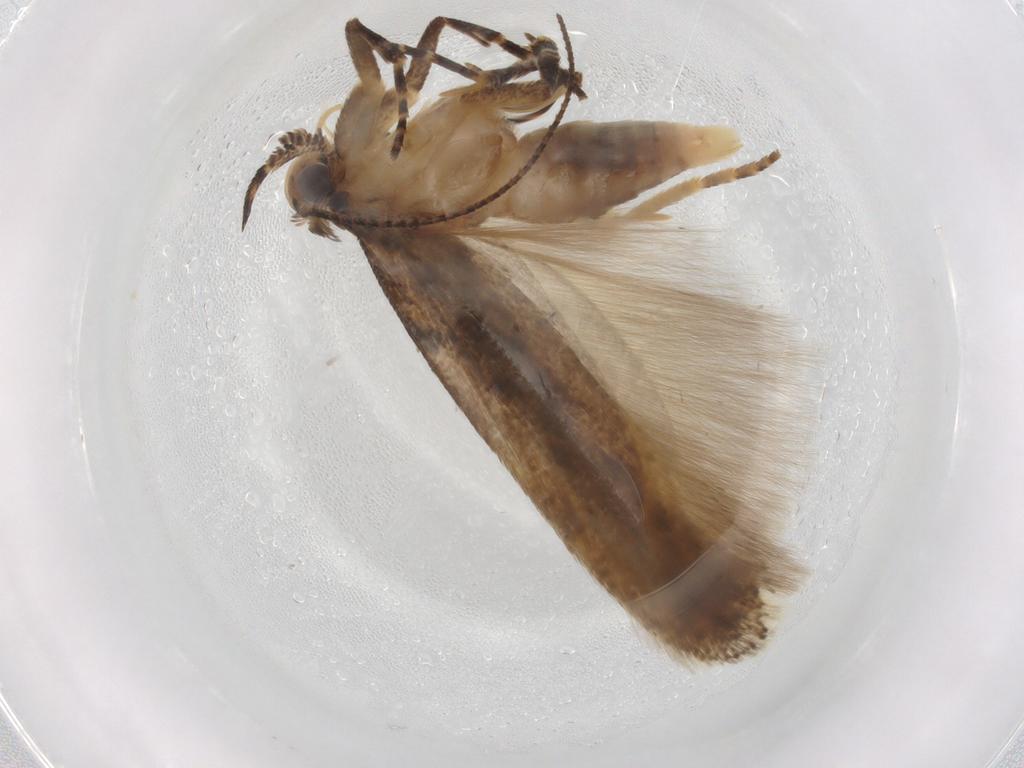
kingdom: Animalia
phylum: Arthropoda
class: Insecta
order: Lepidoptera
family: Gelechiidae
